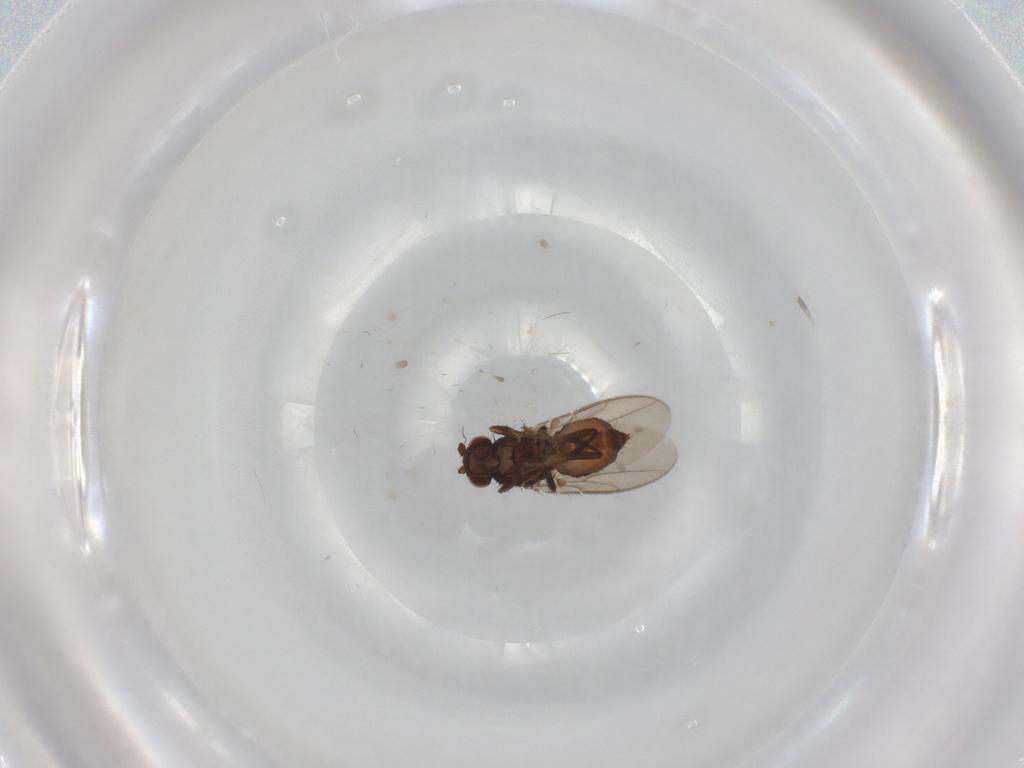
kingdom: Animalia
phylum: Arthropoda
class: Insecta
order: Diptera
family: Sphaeroceridae
